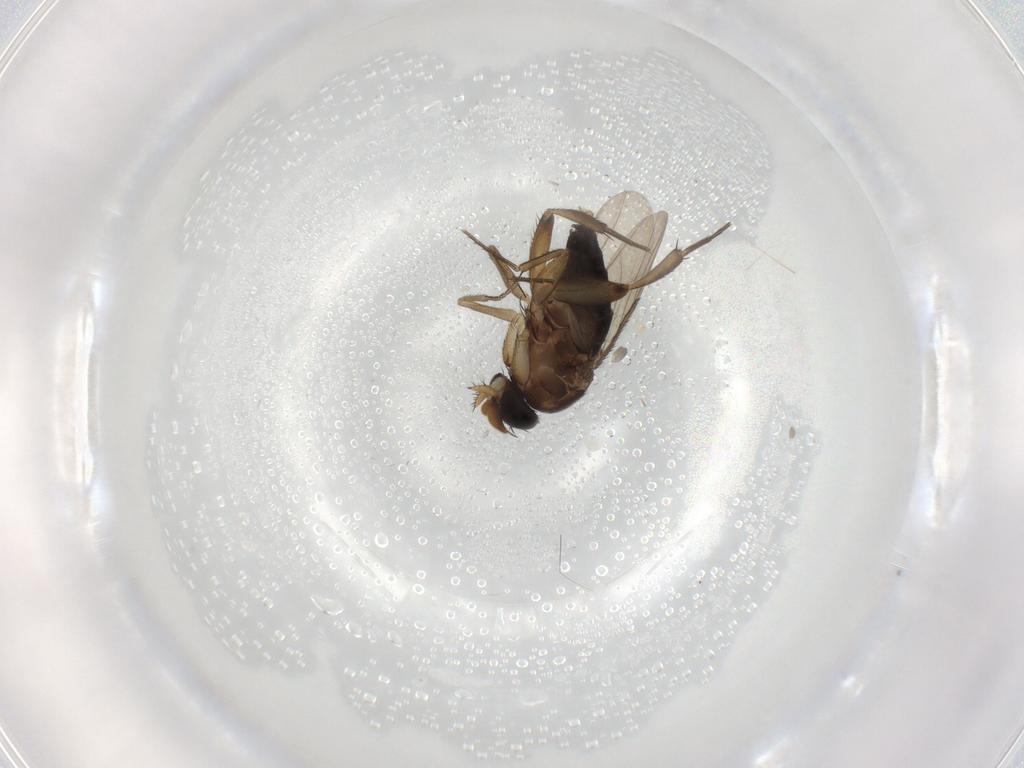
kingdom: Animalia
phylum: Arthropoda
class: Insecta
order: Diptera
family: Phoridae
